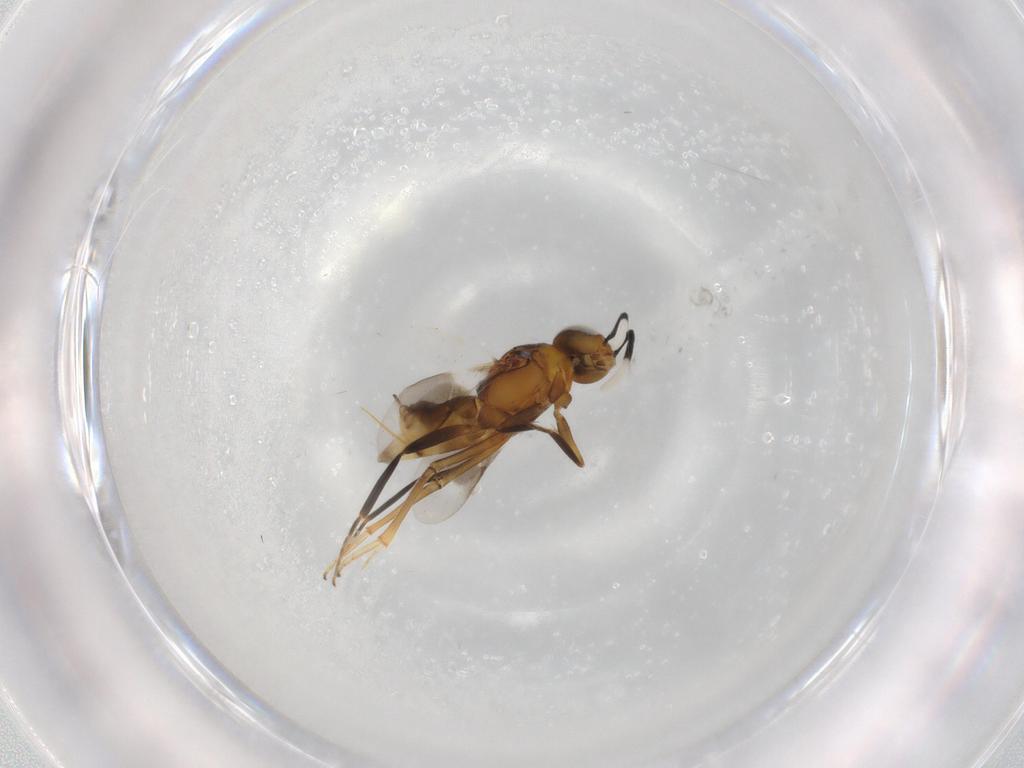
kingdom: Animalia
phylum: Arthropoda
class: Insecta
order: Hymenoptera
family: Encyrtidae
